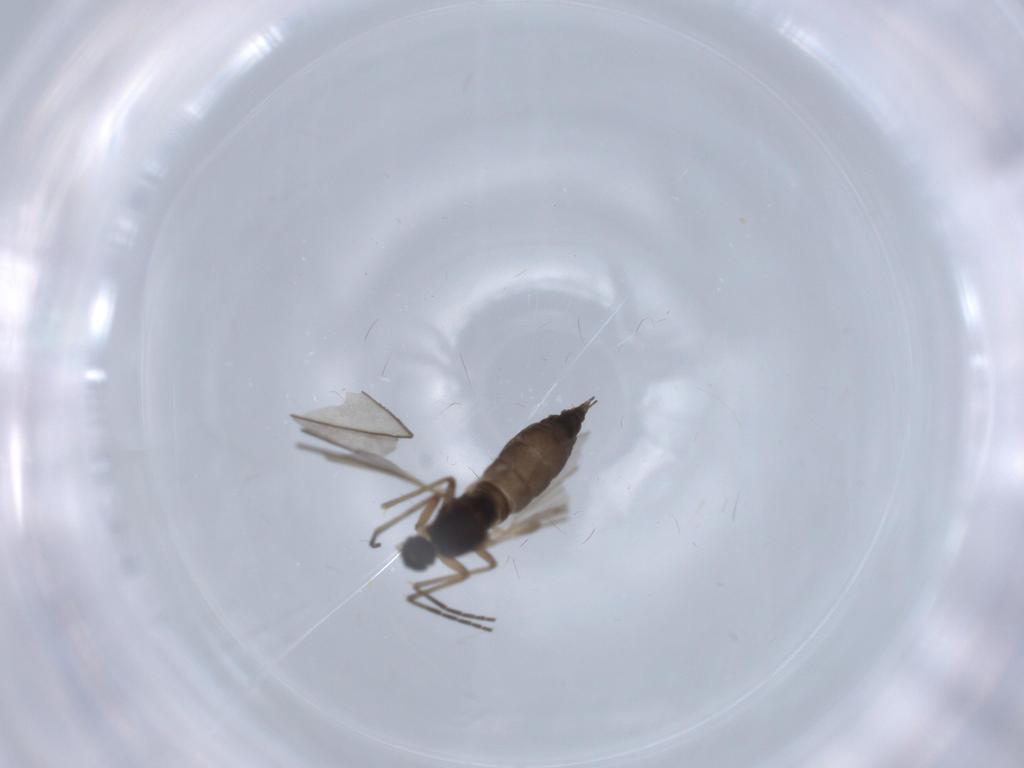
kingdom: Animalia
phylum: Arthropoda
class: Insecta
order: Diptera
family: Sciaridae
